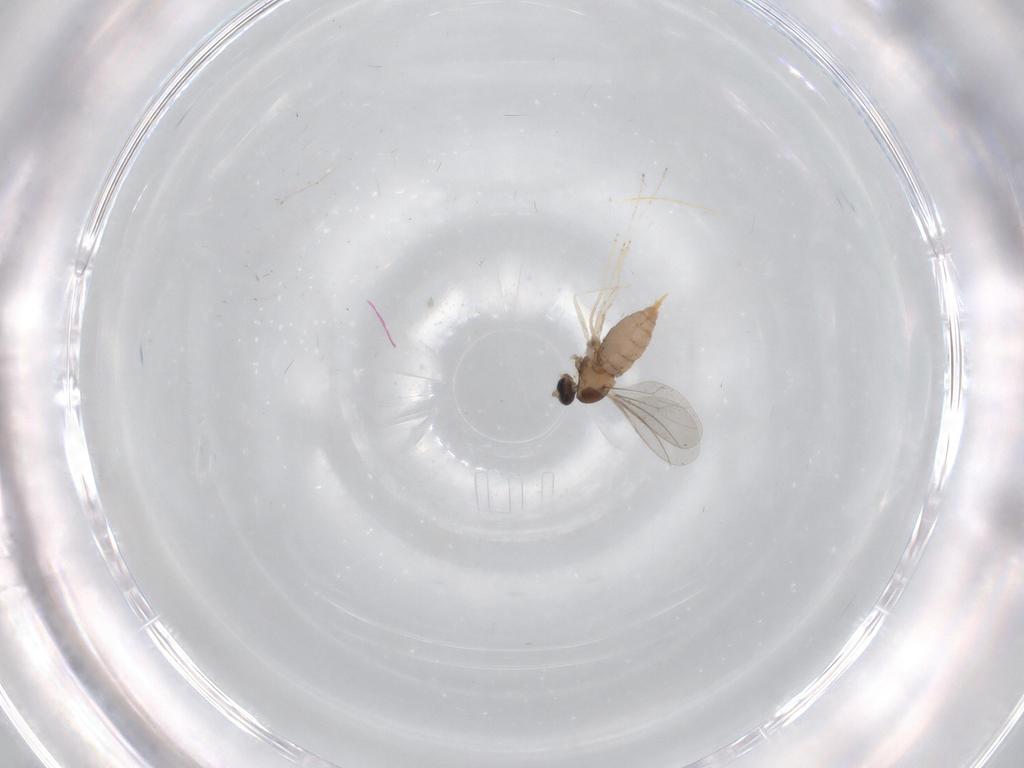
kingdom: Animalia
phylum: Arthropoda
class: Insecta
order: Diptera
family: Cecidomyiidae
